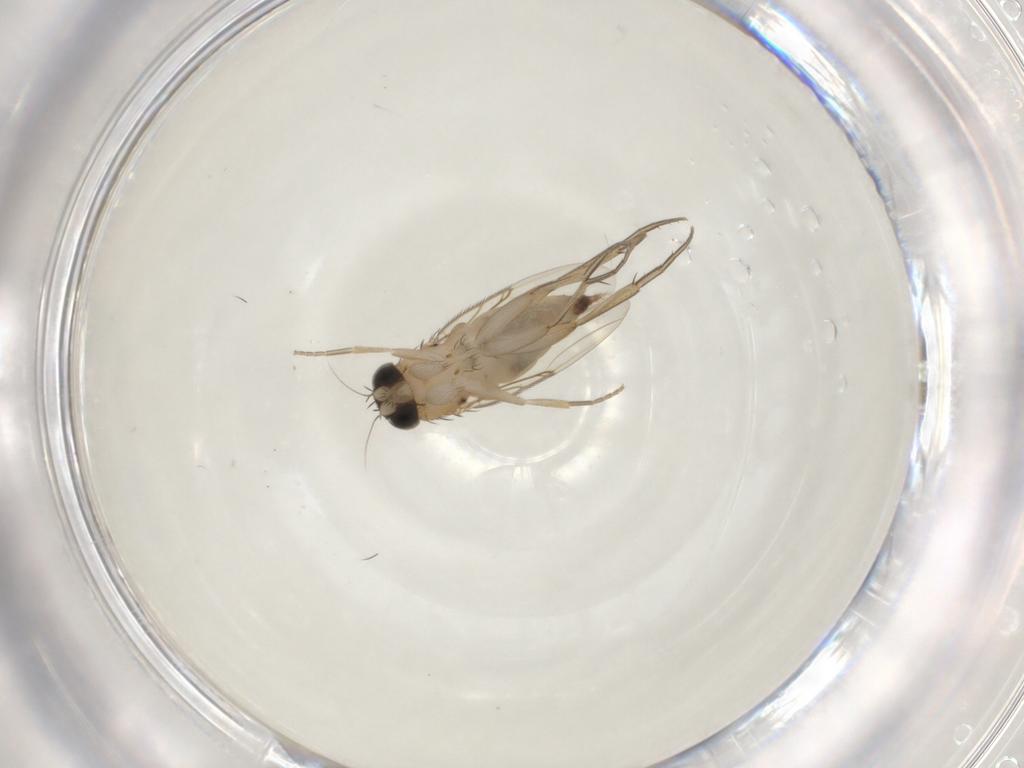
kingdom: Animalia
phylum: Arthropoda
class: Insecta
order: Diptera
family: Phoridae
